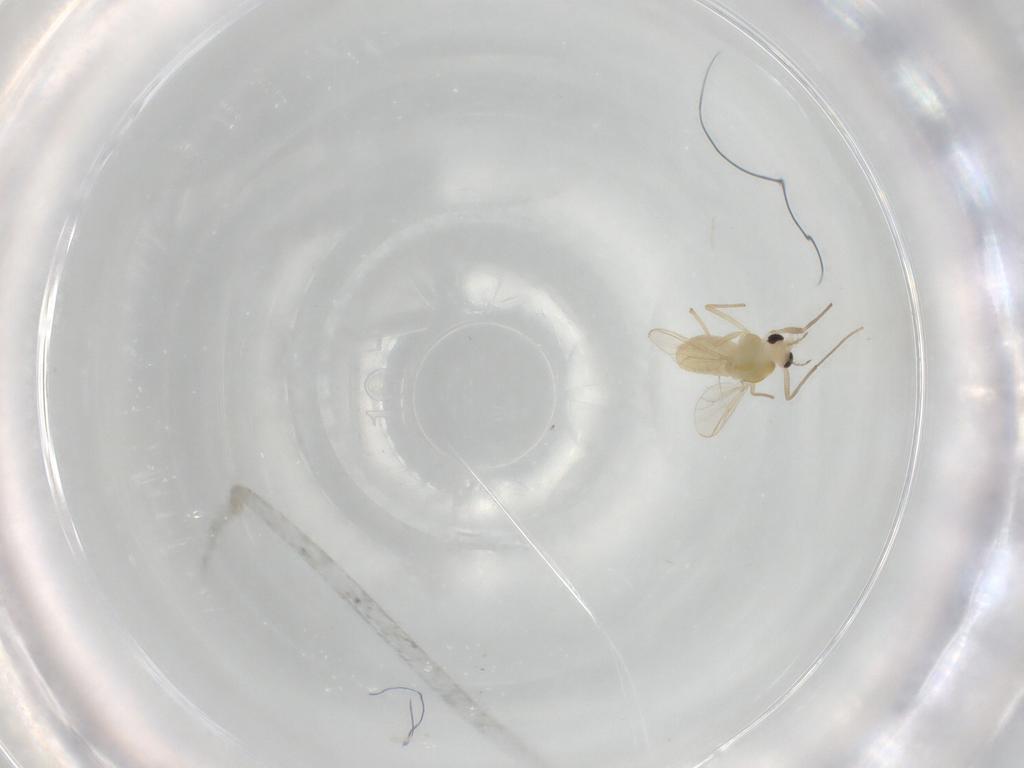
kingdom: Animalia
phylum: Arthropoda
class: Insecta
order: Diptera
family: Chironomidae
